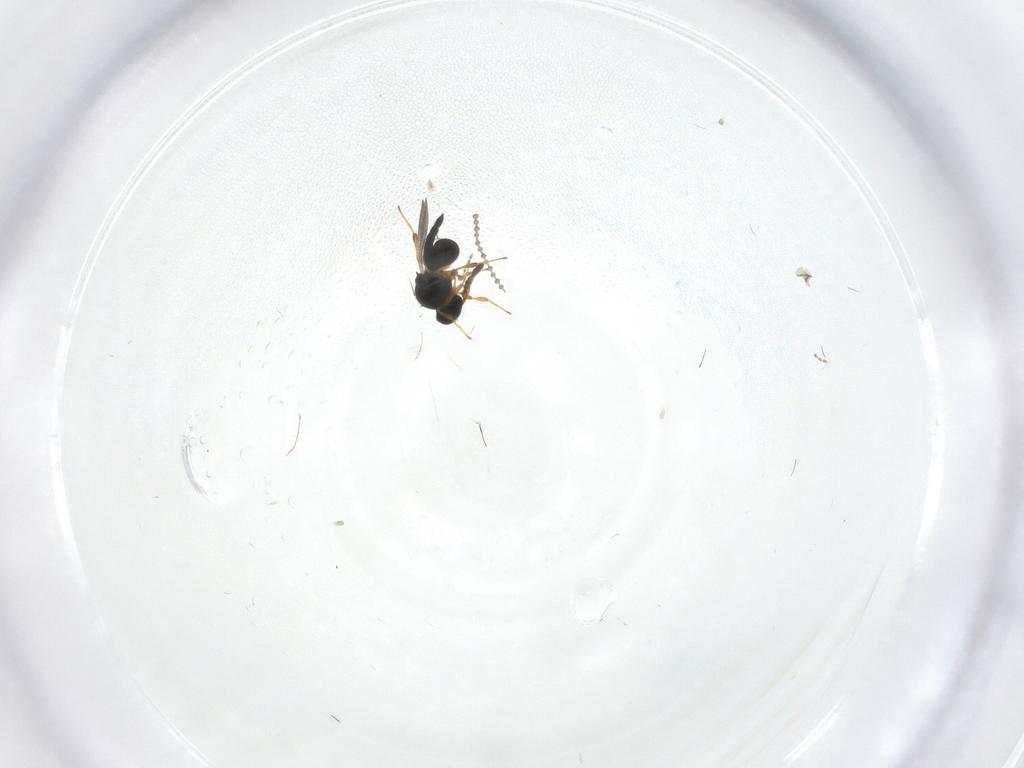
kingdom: Animalia
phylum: Arthropoda
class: Insecta
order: Hymenoptera
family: Platygastridae
